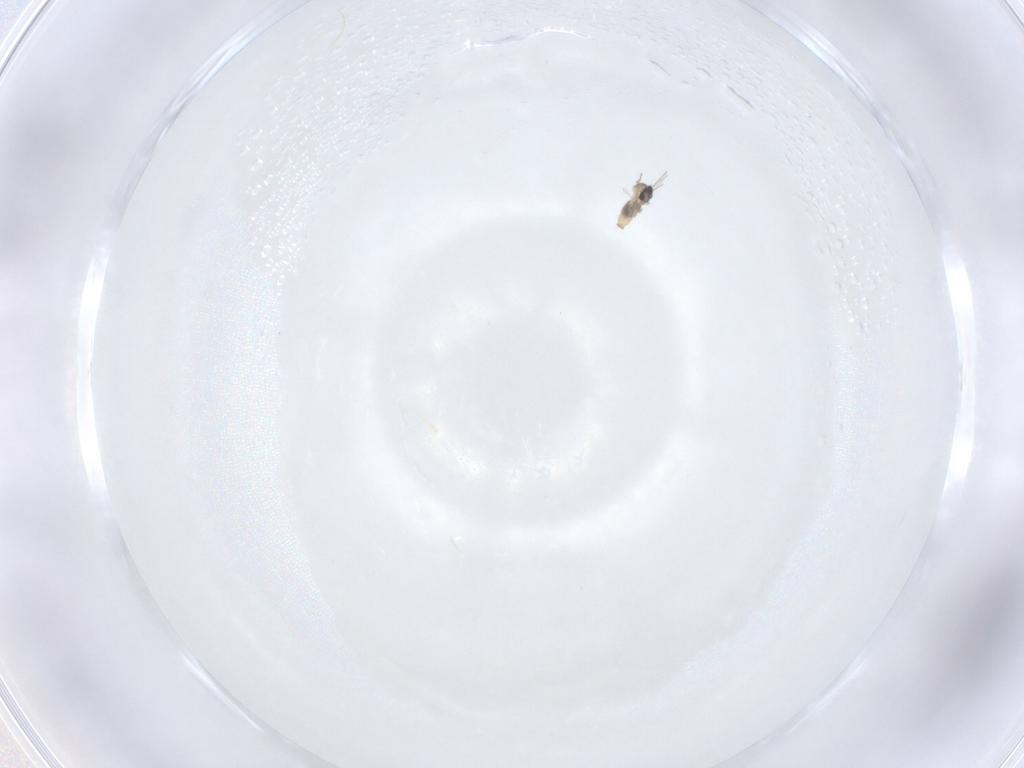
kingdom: Animalia
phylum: Arthropoda
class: Insecta
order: Diptera
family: Cecidomyiidae
